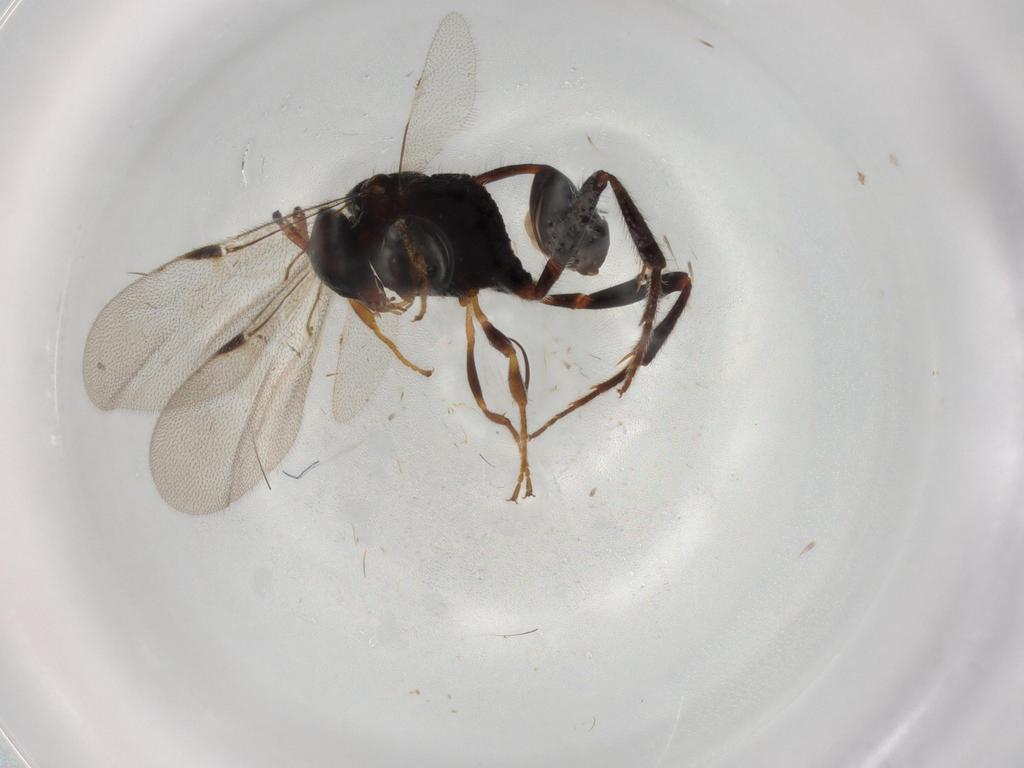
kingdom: Animalia
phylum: Arthropoda
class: Insecta
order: Hymenoptera
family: Evaniidae
